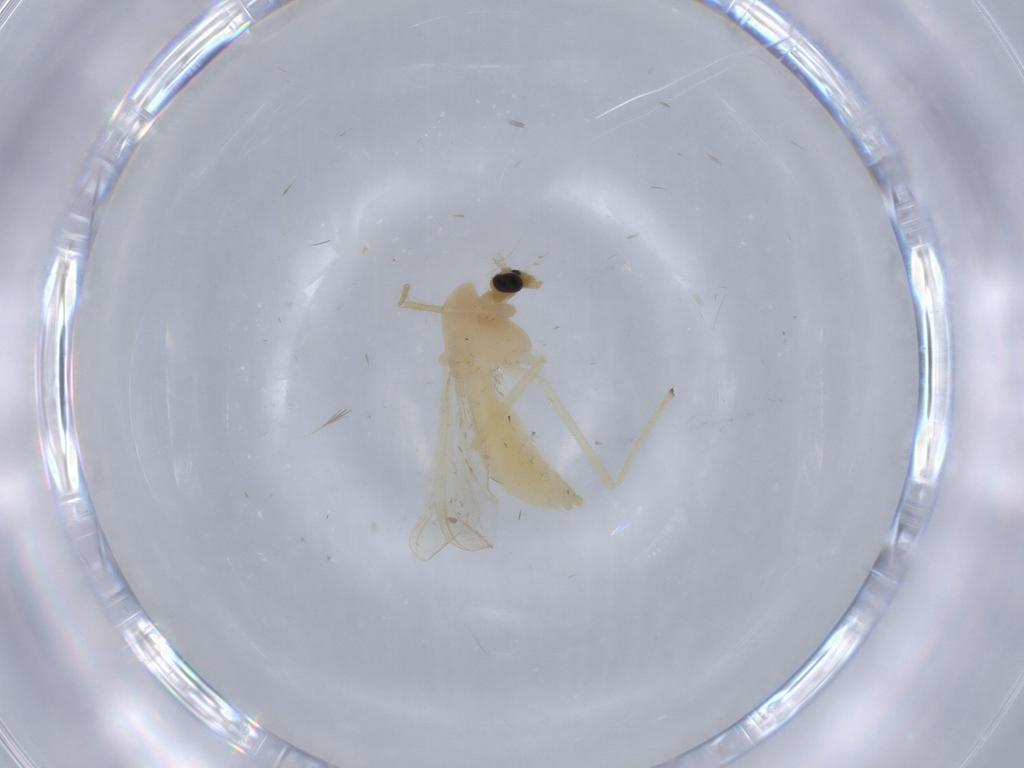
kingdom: Animalia
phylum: Arthropoda
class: Insecta
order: Diptera
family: Chironomidae
